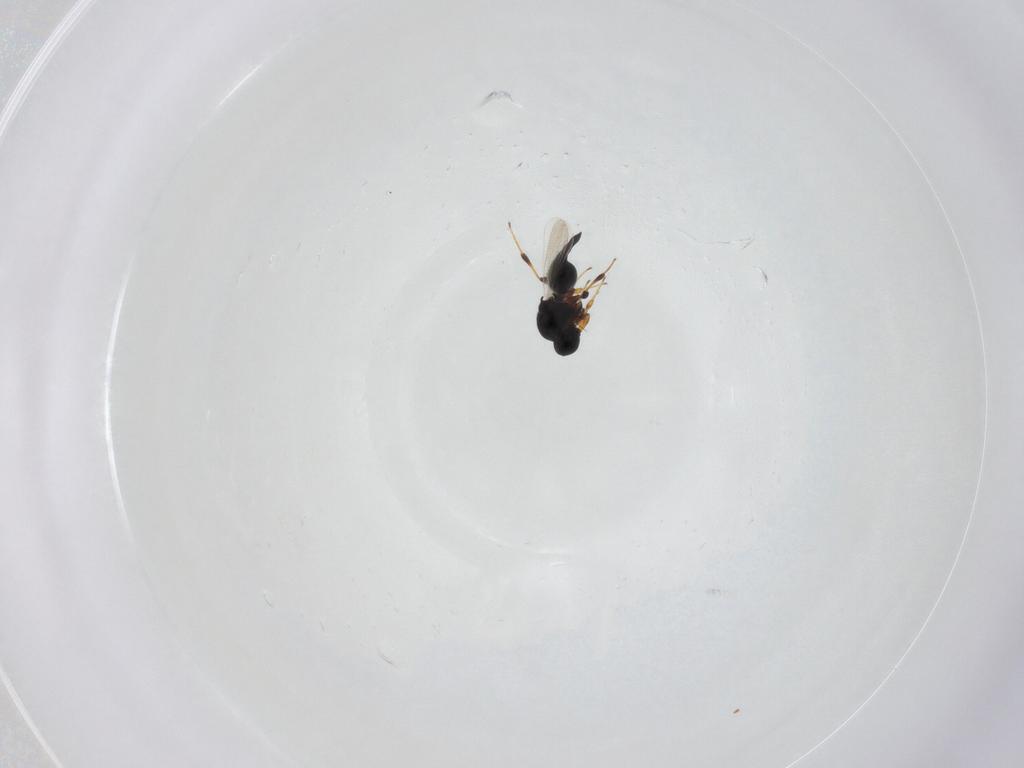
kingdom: Animalia
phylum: Arthropoda
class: Insecta
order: Hymenoptera
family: Platygastridae
